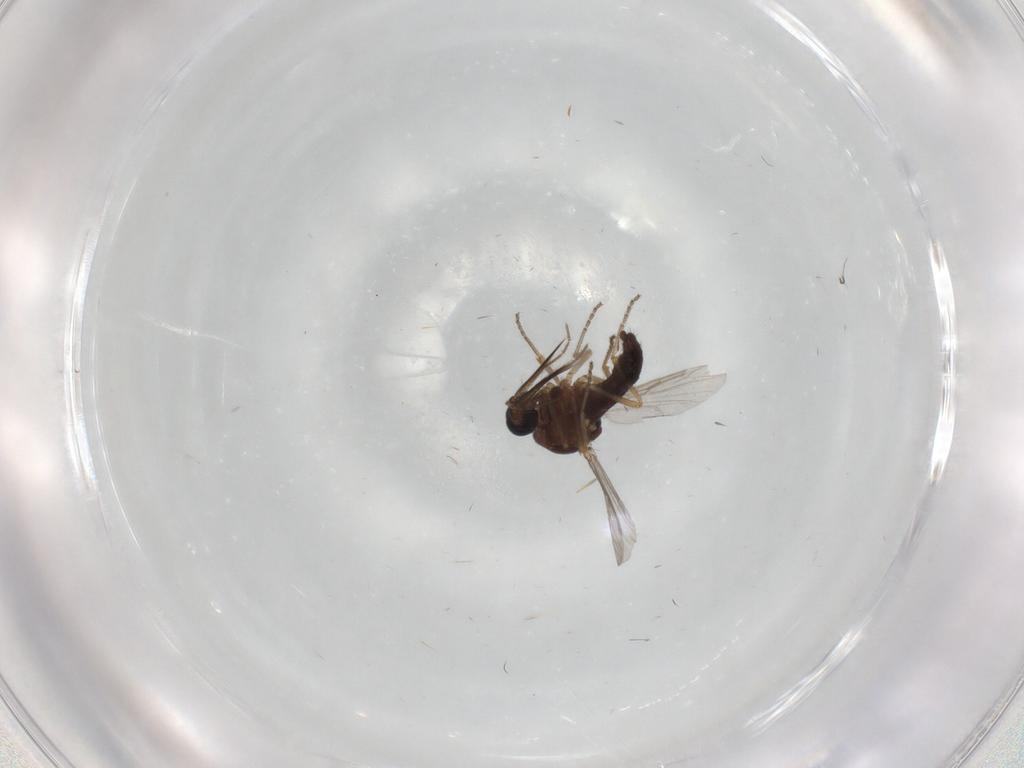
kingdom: Animalia
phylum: Arthropoda
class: Insecta
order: Diptera
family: Ceratopogonidae
